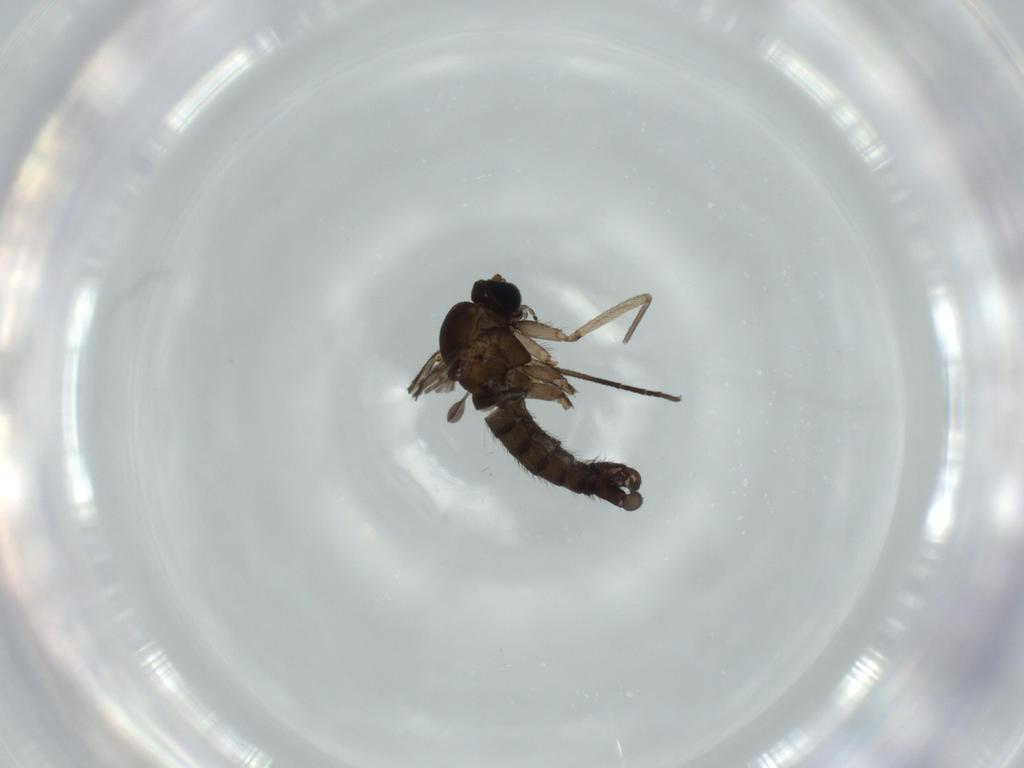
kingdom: Animalia
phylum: Arthropoda
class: Insecta
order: Diptera
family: Sciaridae
